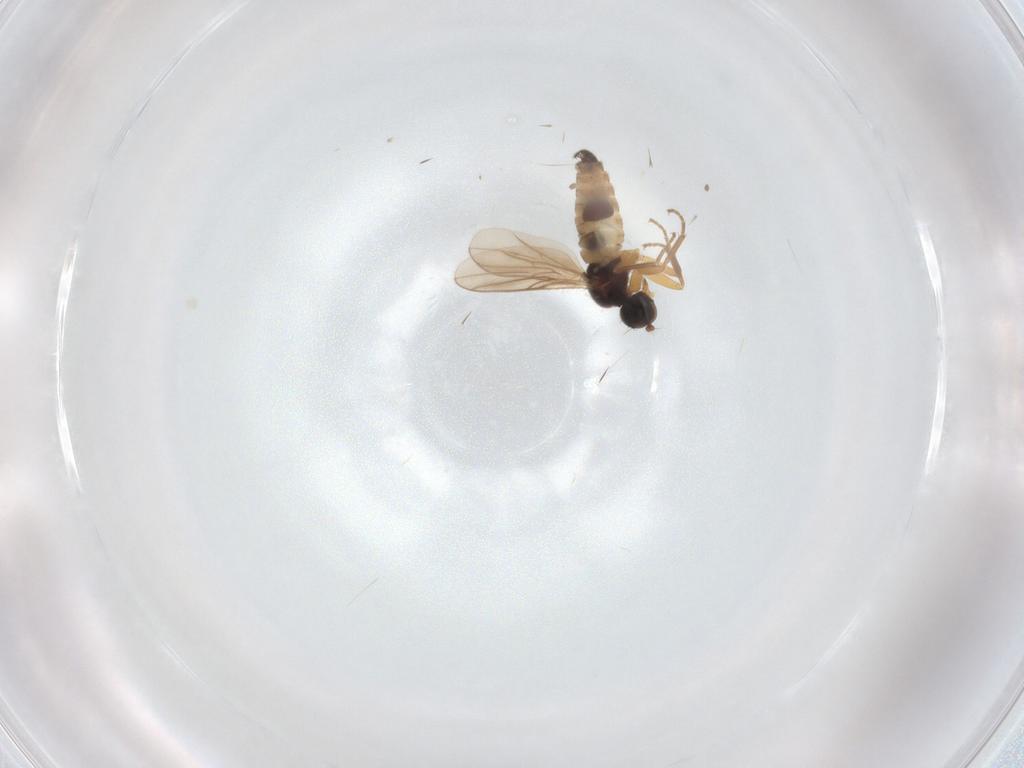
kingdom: Animalia
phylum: Arthropoda
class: Insecta
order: Diptera
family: Hybotidae
